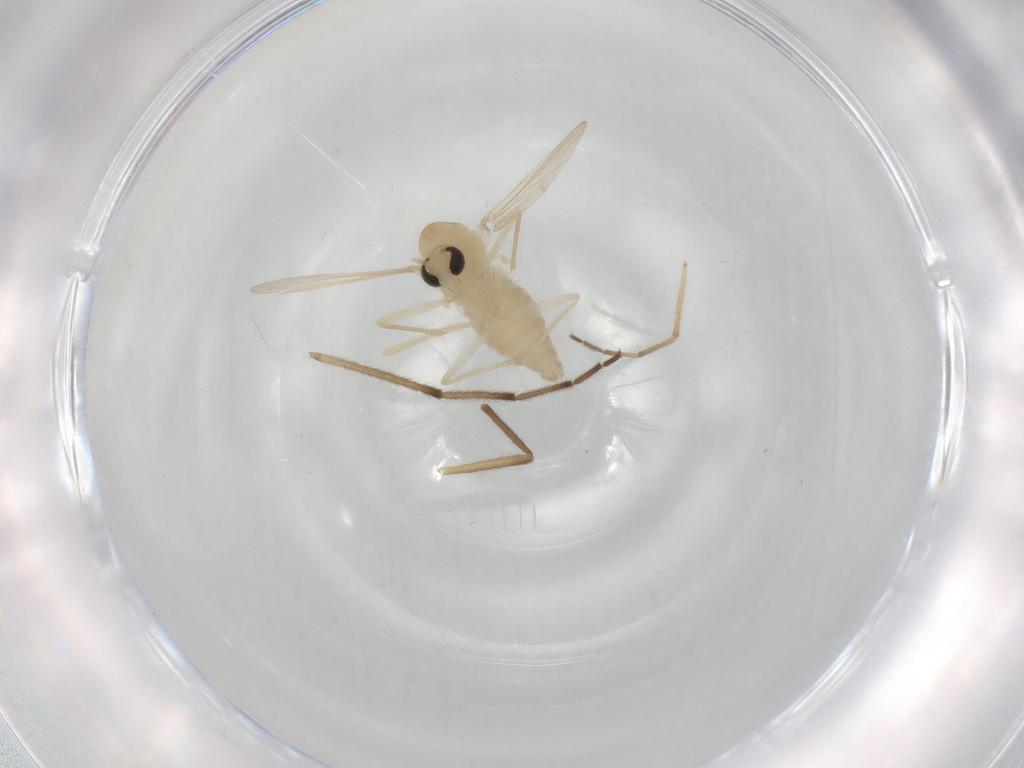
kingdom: Animalia
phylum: Arthropoda
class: Insecta
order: Diptera
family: Chironomidae
